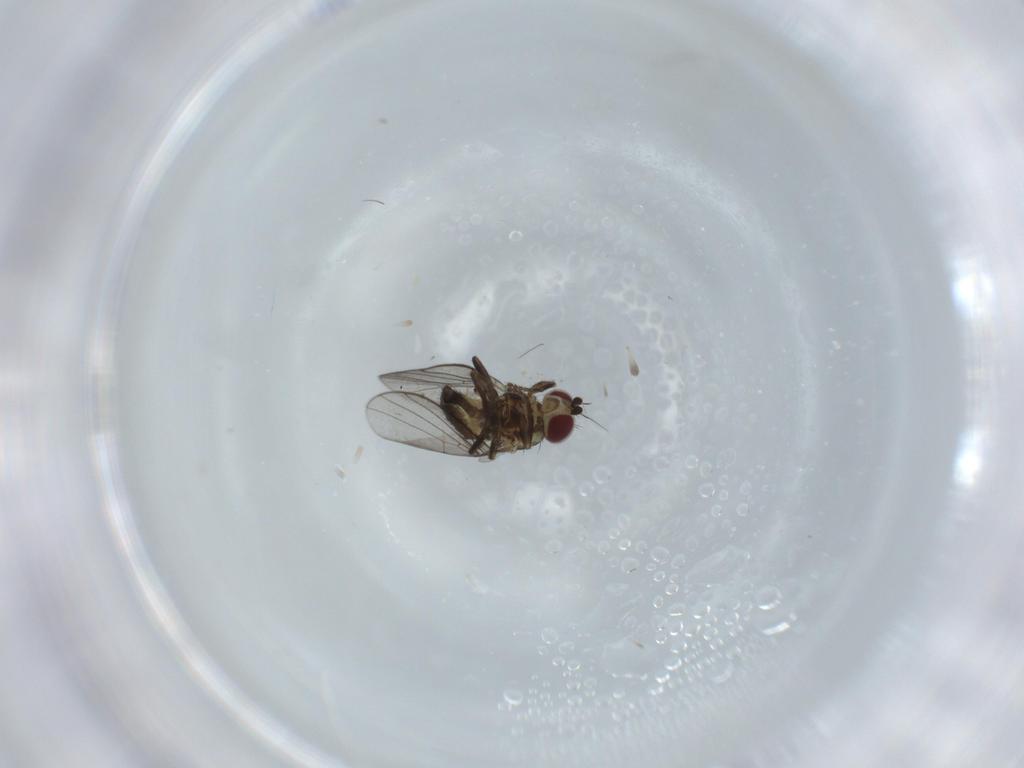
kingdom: Animalia
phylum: Arthropoda
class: Insecta
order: Diptera
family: Agromyzidae
